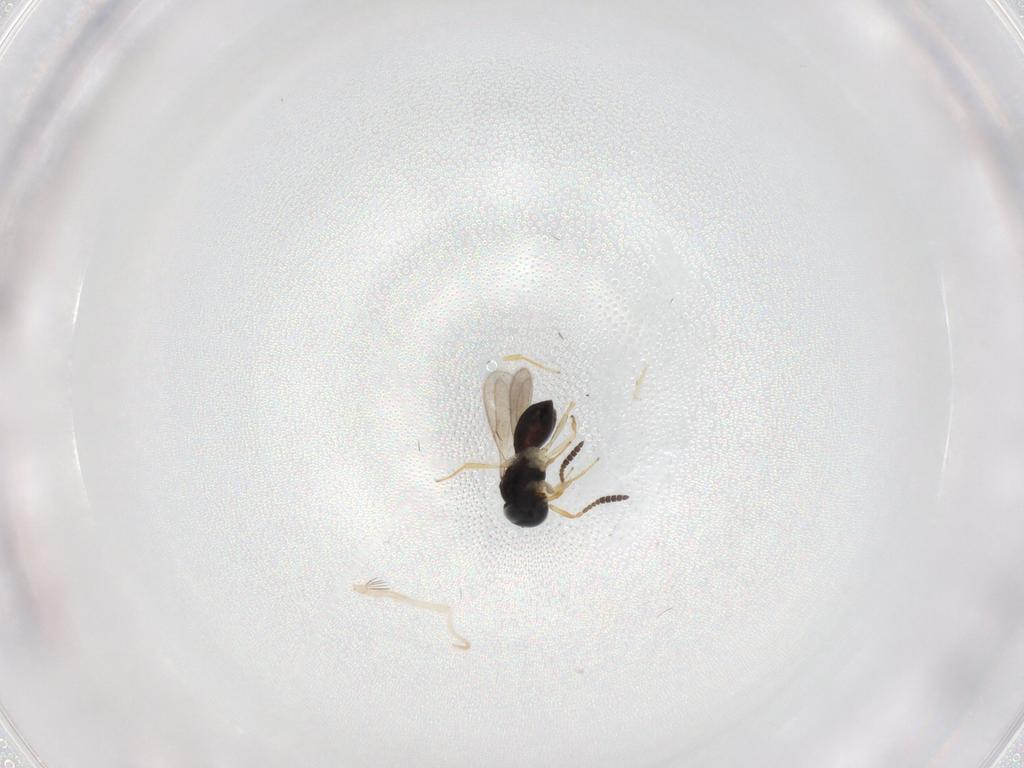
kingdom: Animalia
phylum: Arthropoda
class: Insecta
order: Hymenoptera
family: Scelionidae
